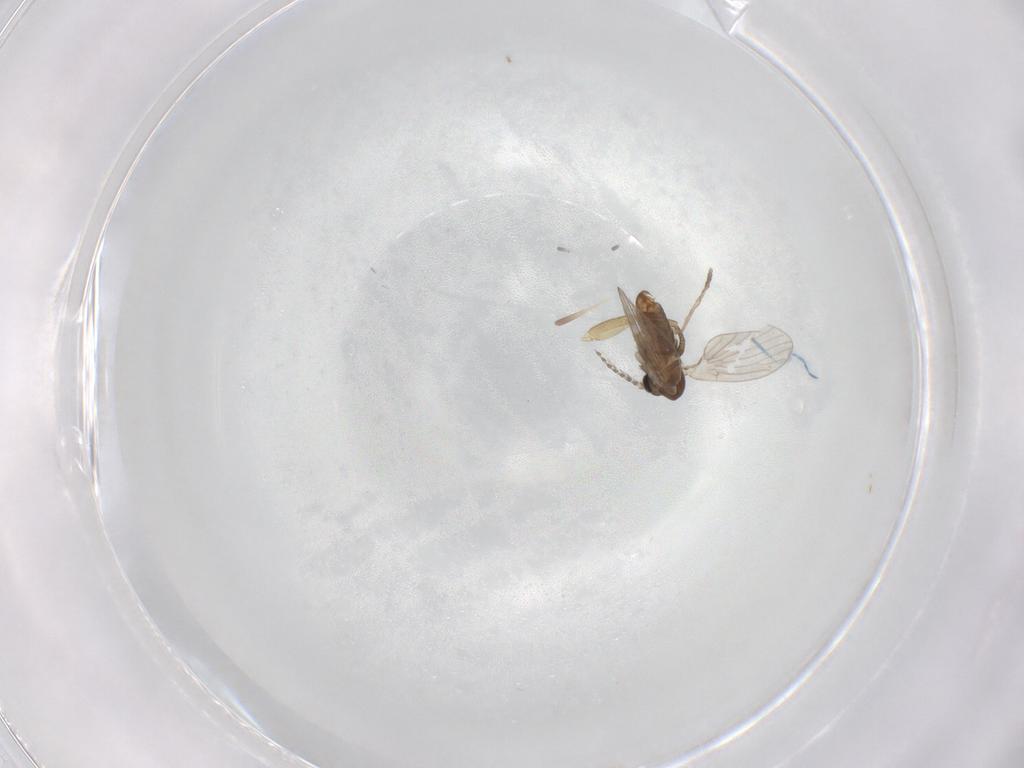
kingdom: Animalia
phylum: Arthropoda
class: Insecta
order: Diptera
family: Phoridae
